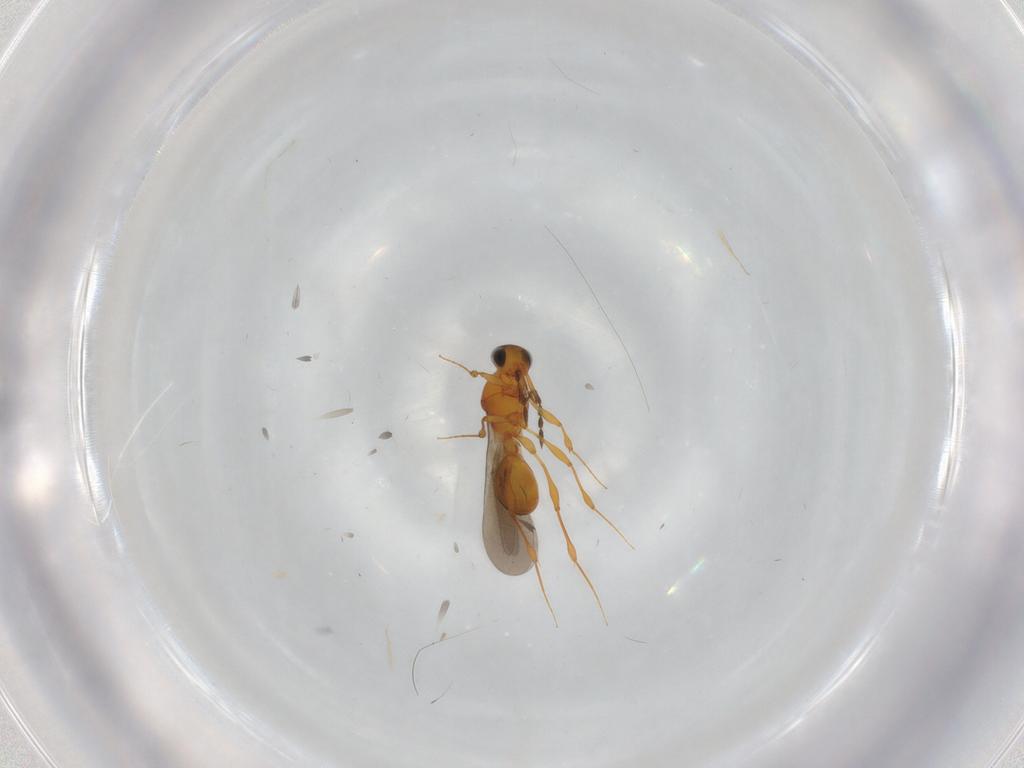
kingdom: Animalia
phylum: Arthropoda
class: Insecta
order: Hymenoptera
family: Platygastridae
